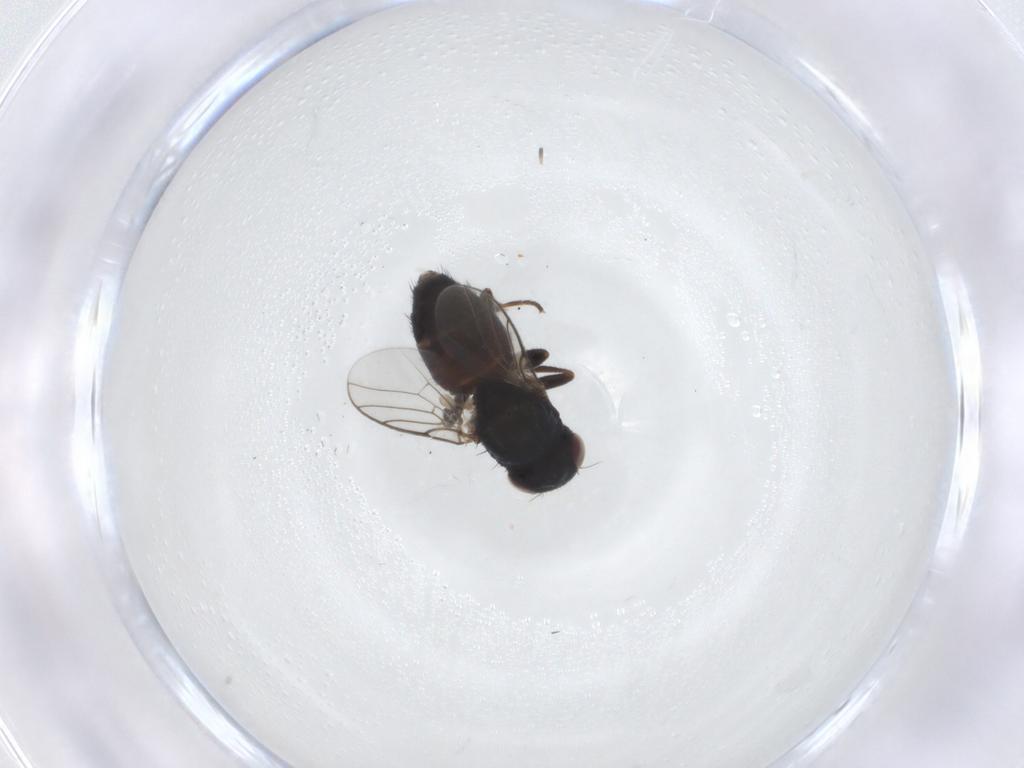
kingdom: Animalia
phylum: Arthropoda
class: Insecta
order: Diptera
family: Chloropidae
